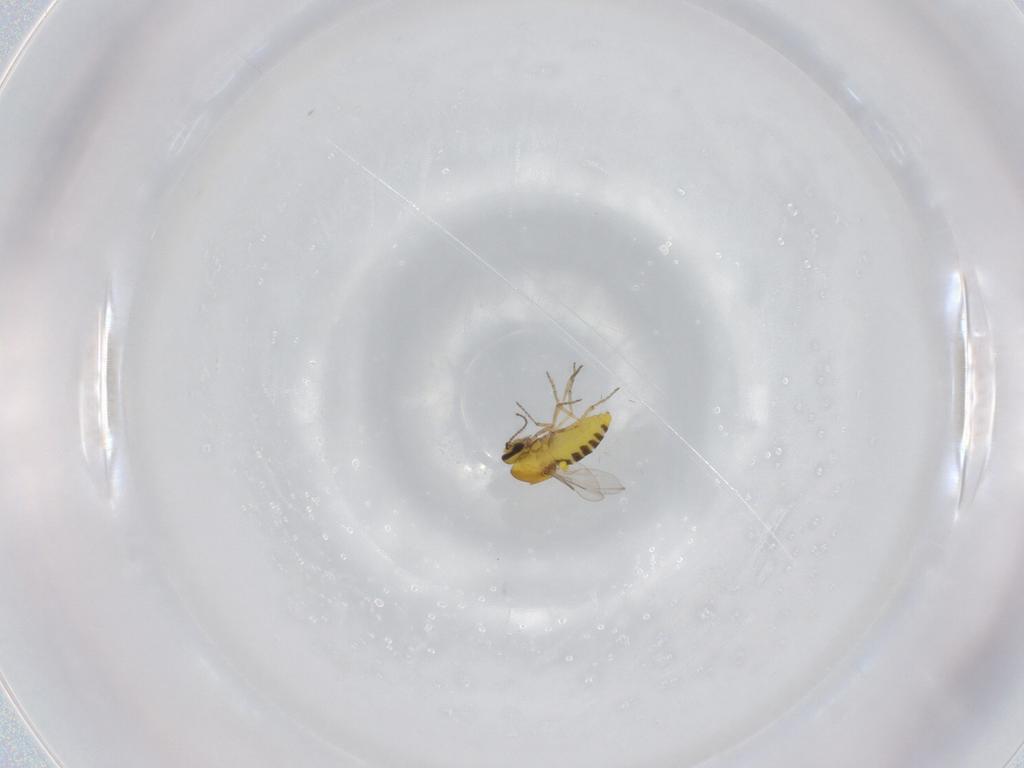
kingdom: Animalia
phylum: Arthropoda
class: Insecta
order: Diptera
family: Ceratopogonidae
